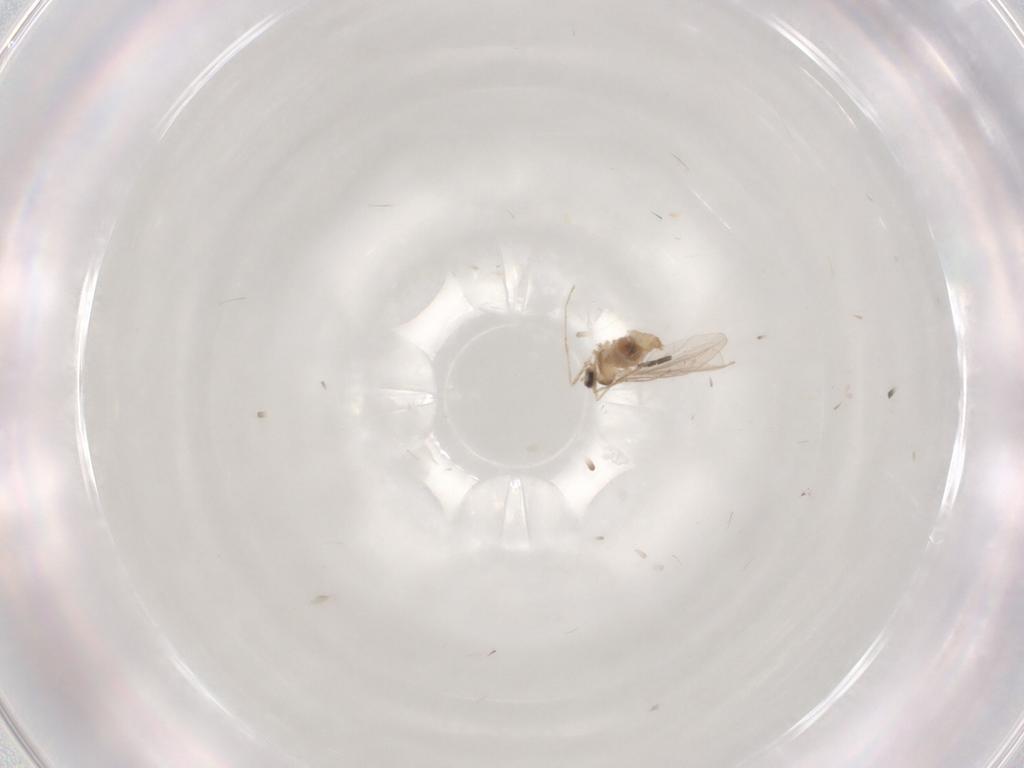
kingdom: Animalia
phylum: Arthropoda
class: Insecta
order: Diptera
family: Cecidomyiidae
